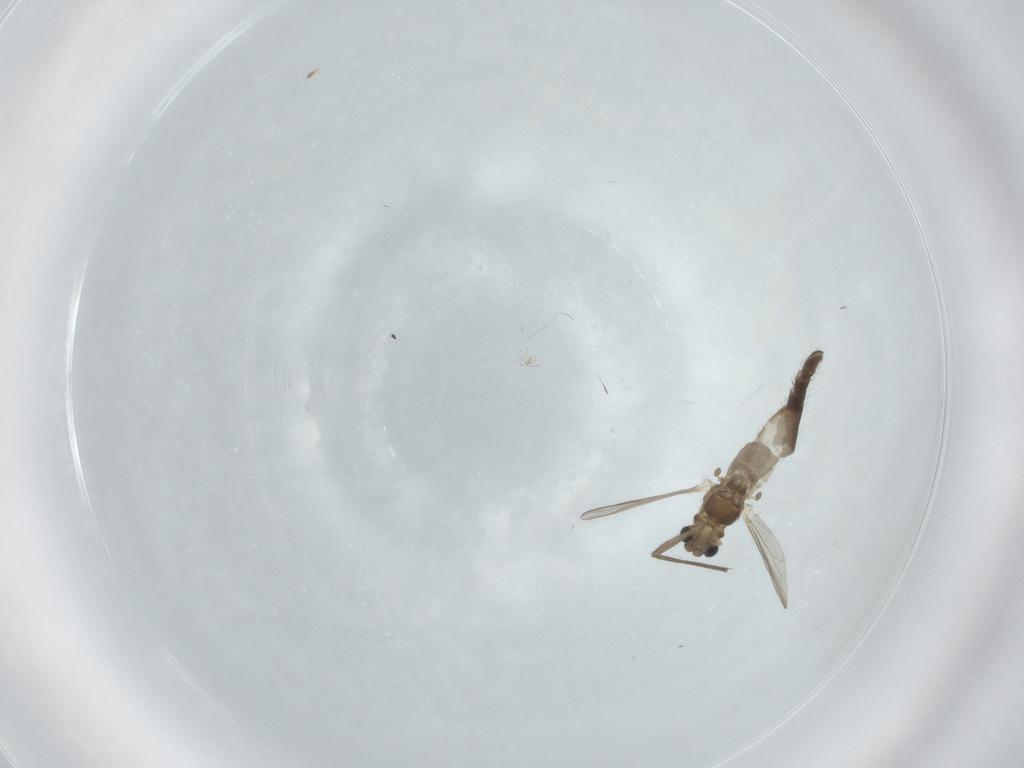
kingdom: Animalia
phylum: Arthropoda
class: Insecta
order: Diptera
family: Chironomidae
